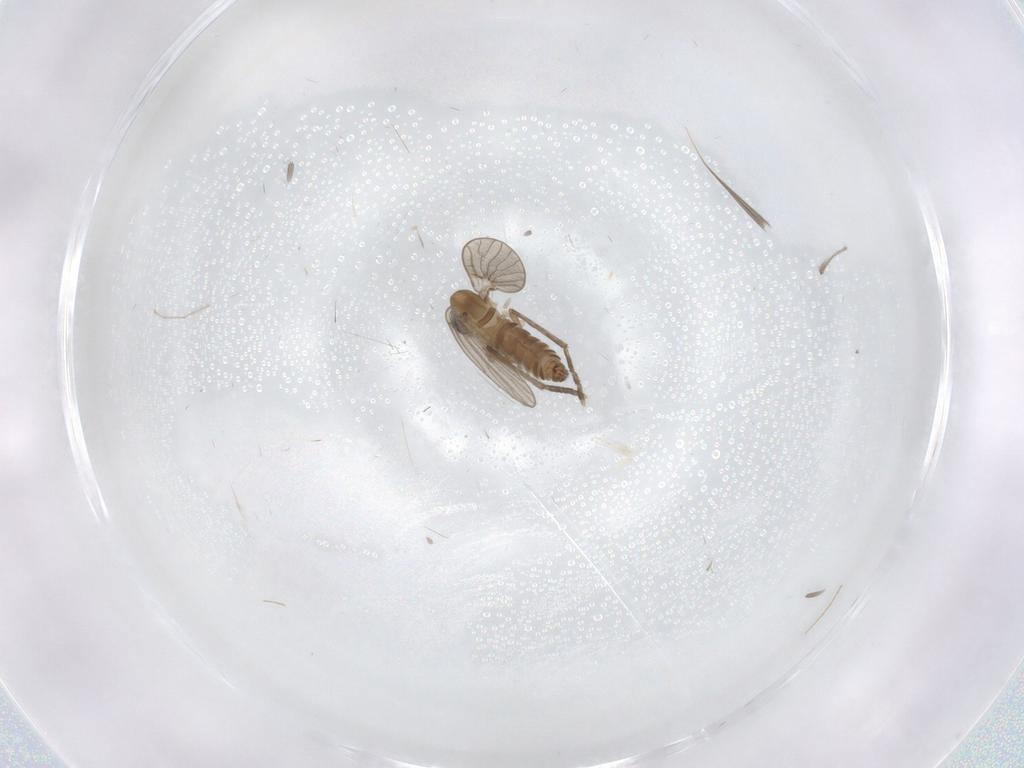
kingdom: Animalia
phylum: Arthropoda
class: Insecta
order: Diptera
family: Psychodidae
